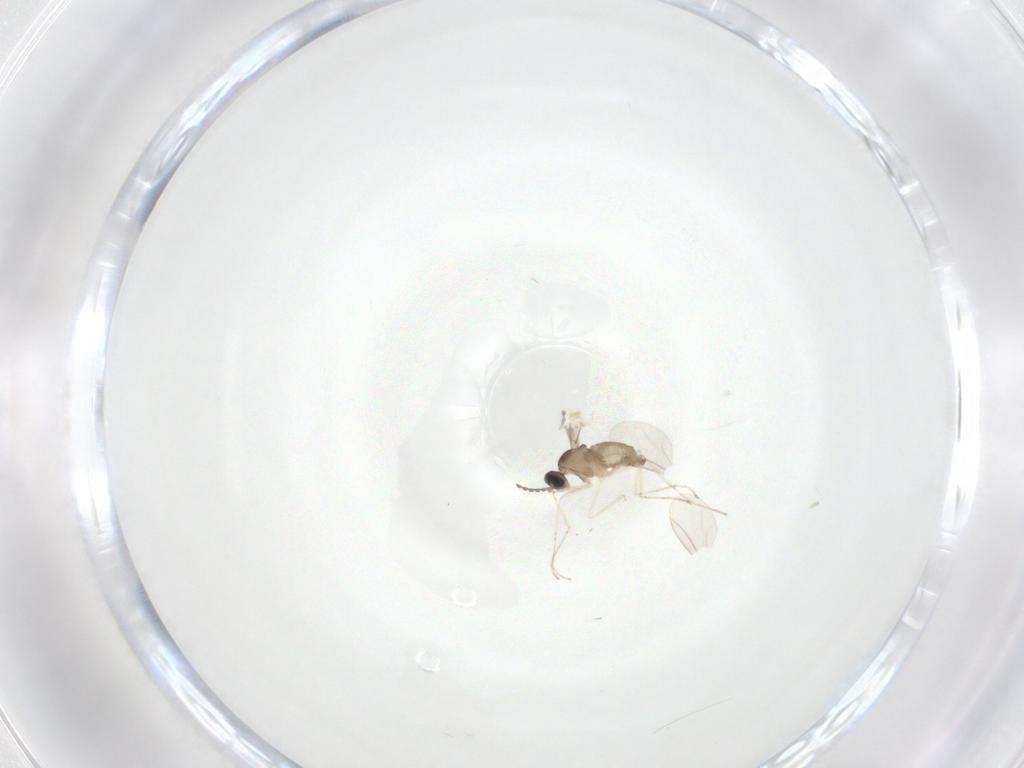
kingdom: Animalia
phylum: Arthropoda
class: Insecta
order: Diptera
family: Cecidomyiidae
